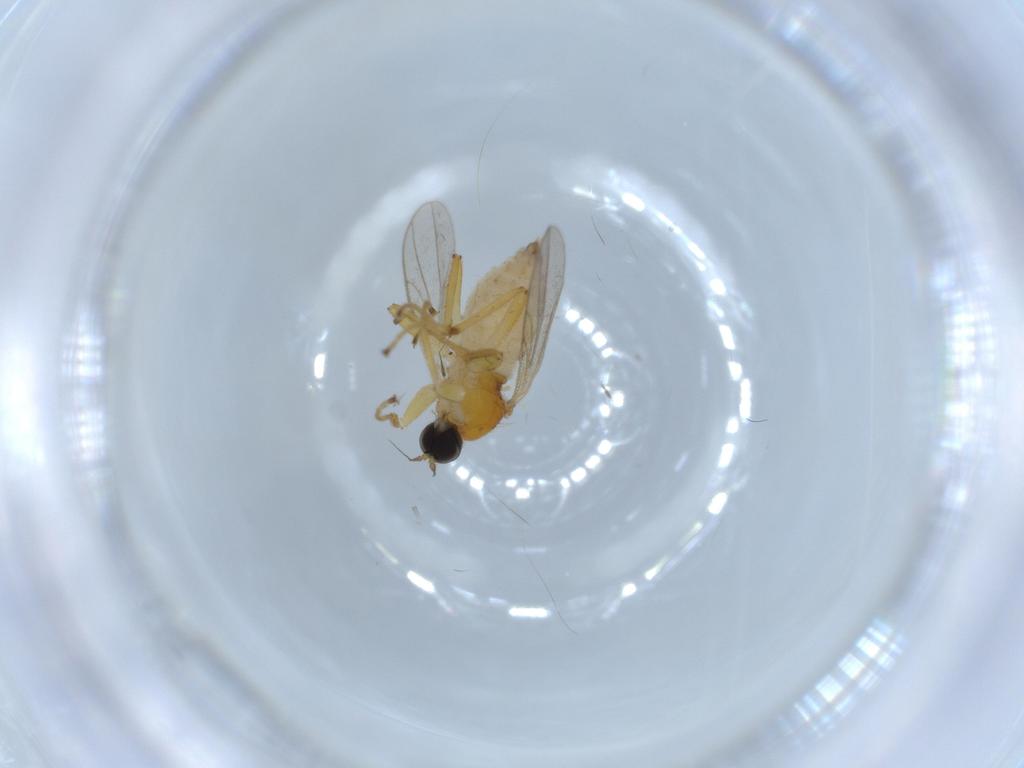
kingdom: Animalia
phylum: Arthropoda
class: Insecta
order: Diptera
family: Hybotidae
